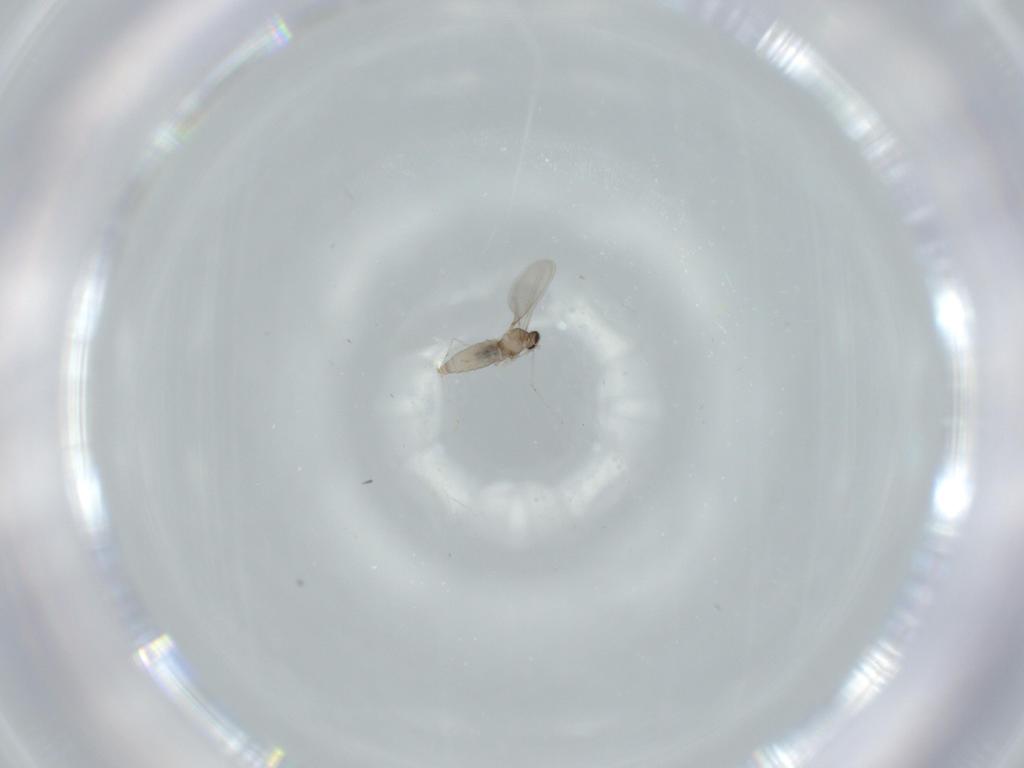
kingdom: Animalia
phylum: Arthropoda
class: Insecta
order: Diptera
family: Cecidomyiidae
